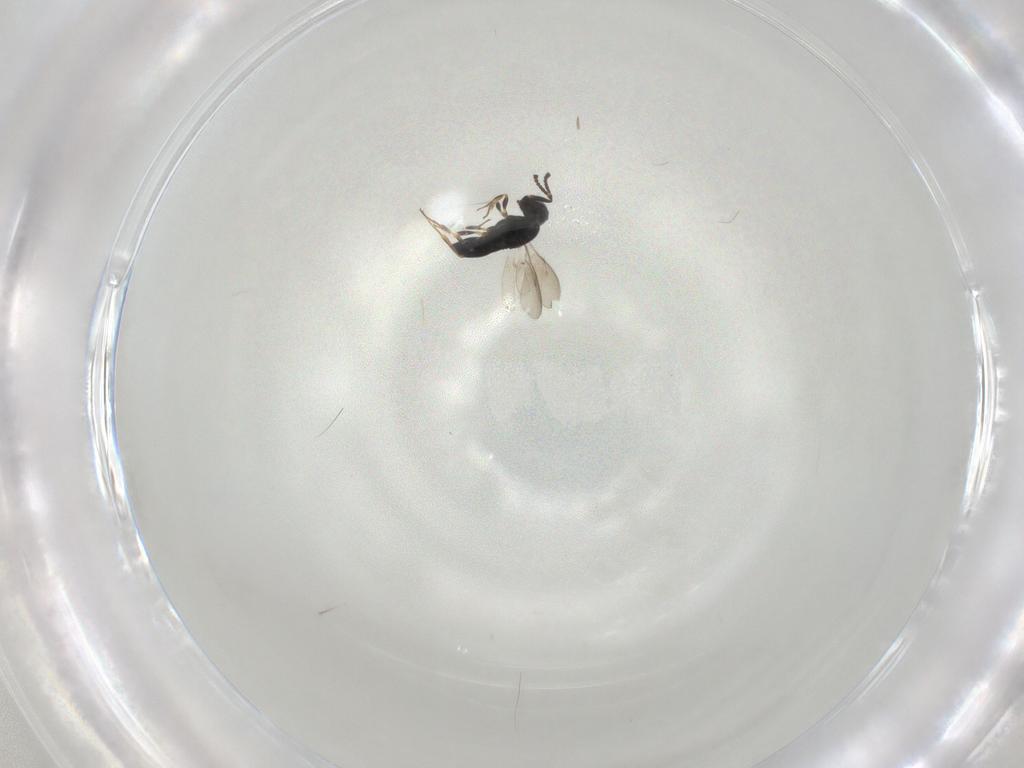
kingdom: Animalia
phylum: Arthropoda
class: Insecta
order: Hymenoptera
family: Scelionidae
